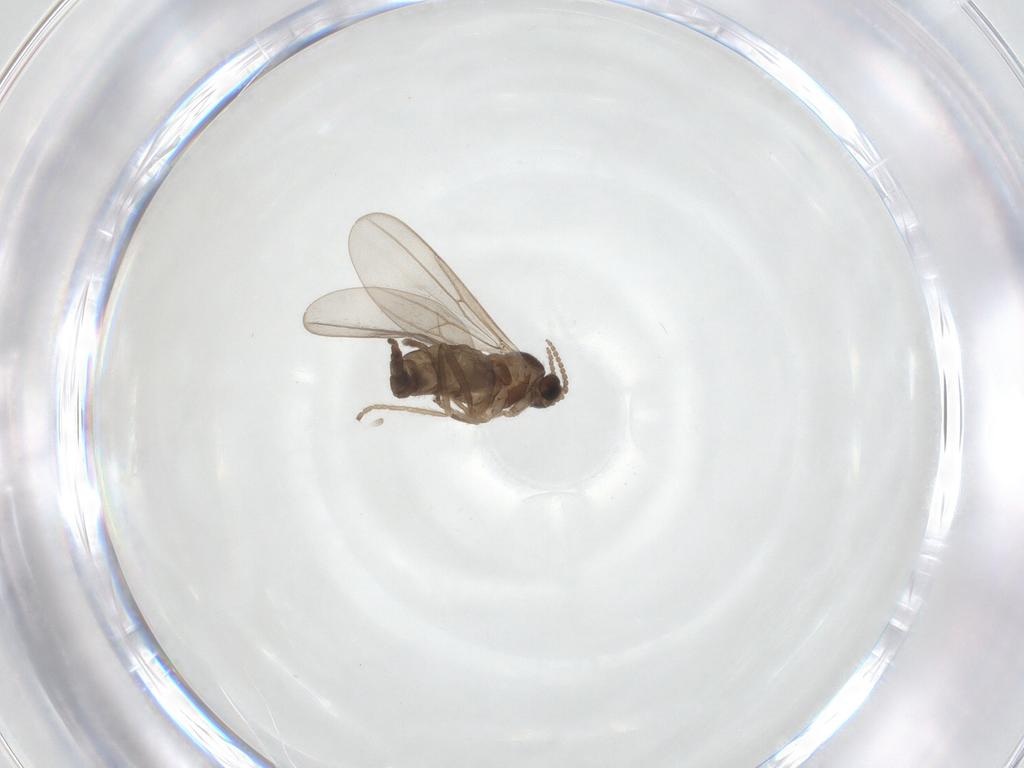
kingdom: Animalia
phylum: Arthropoda
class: Insecta
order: Diptera
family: Cecidomyiidae
